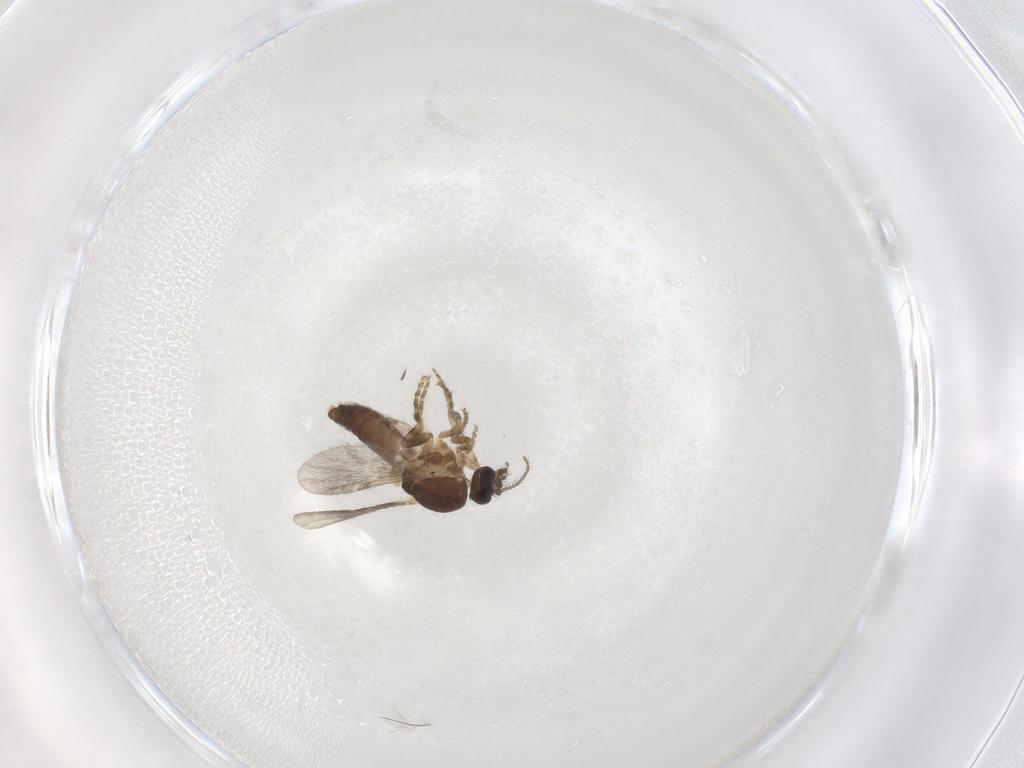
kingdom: Animalia
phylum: Arthropoda
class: Insecta
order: Diptera
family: Ceratopogonidae
